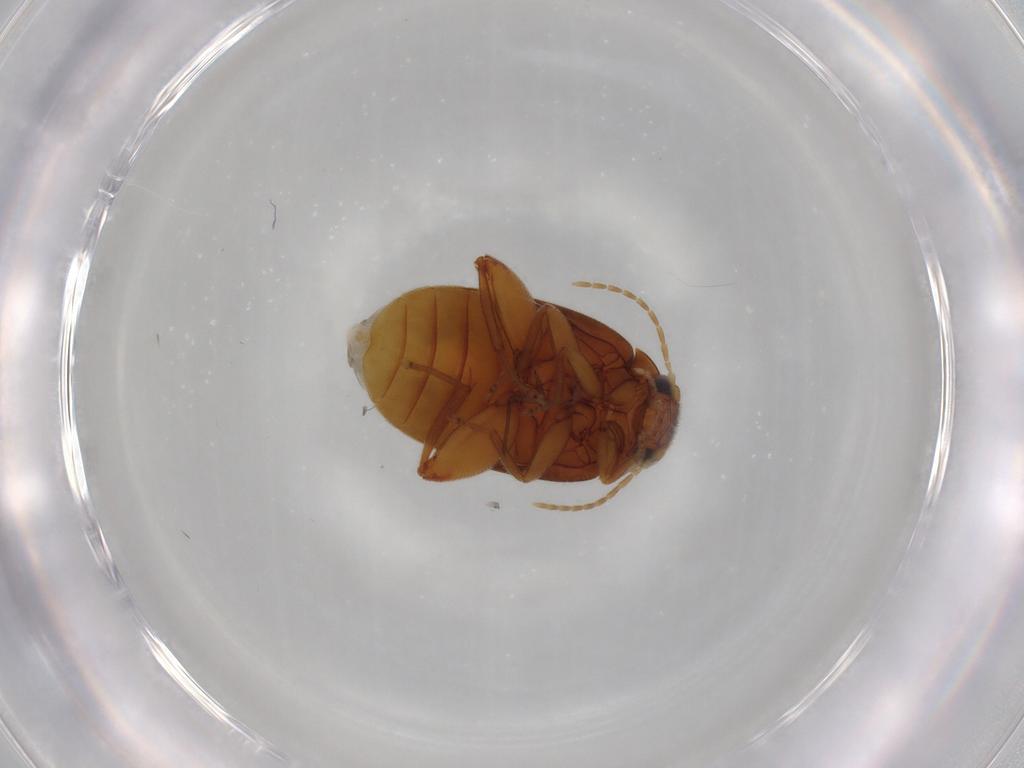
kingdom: Animalia
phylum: Arthropoda
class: Insecta
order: Coleoptera
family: Scirtidae
